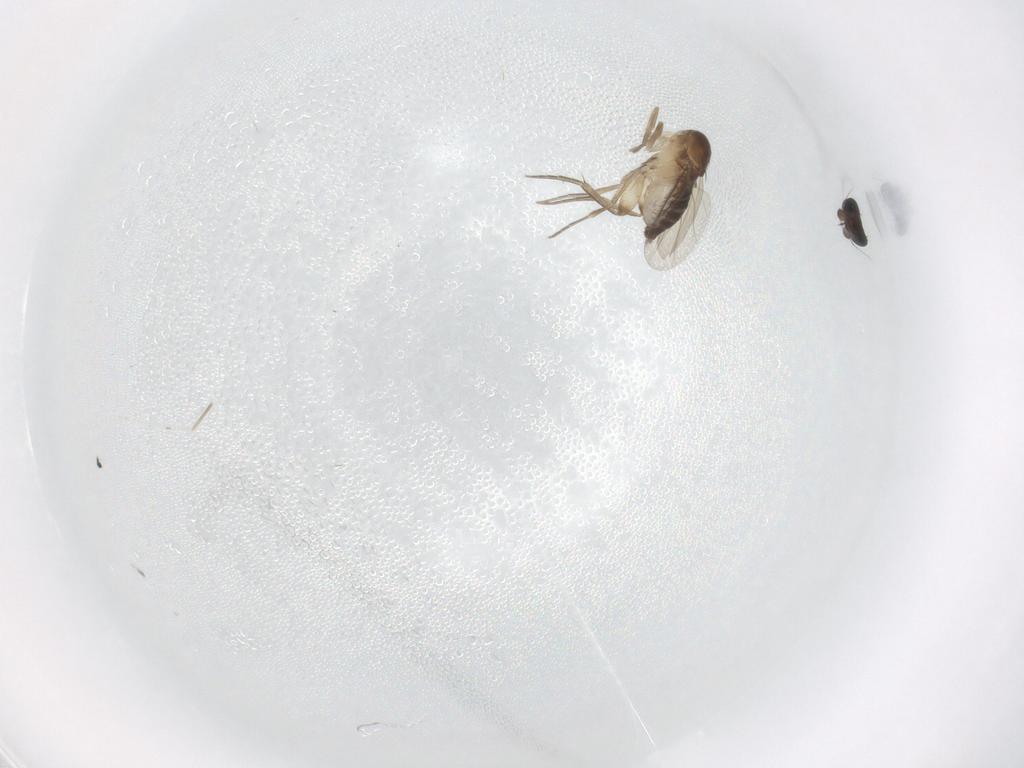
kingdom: Animalia
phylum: Arthropoda
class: Insecta
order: Diptera
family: Phoridae
